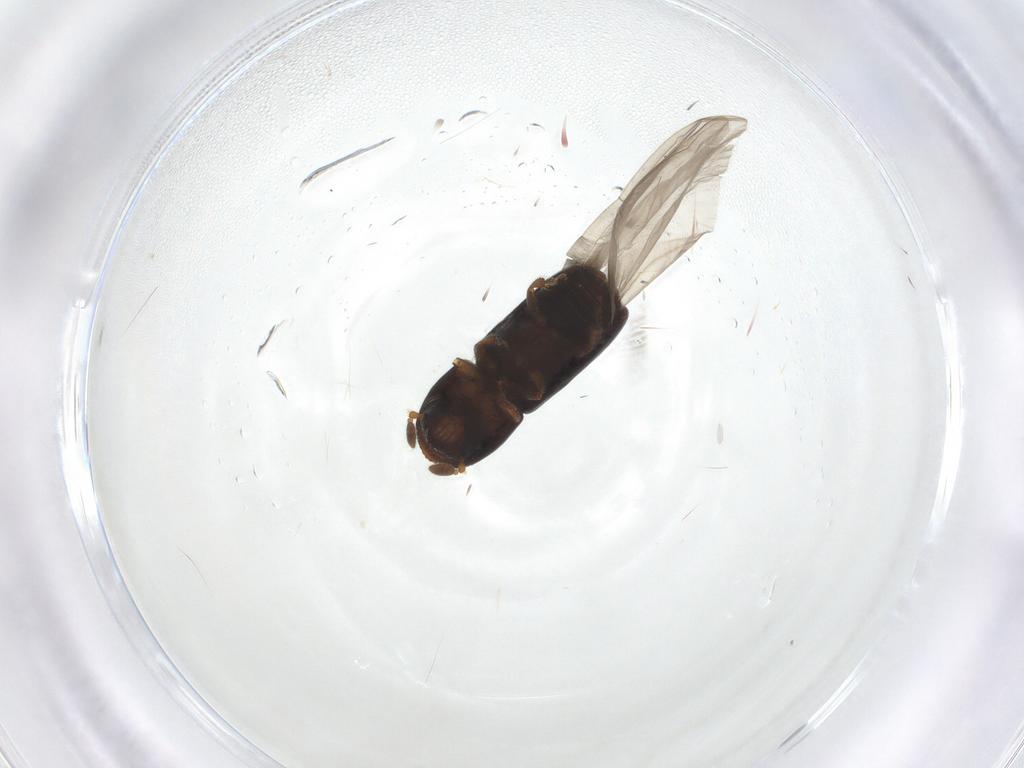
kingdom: Animalia
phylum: Arthropoda
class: Insecta
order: Coleoptera
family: Curculionidae
